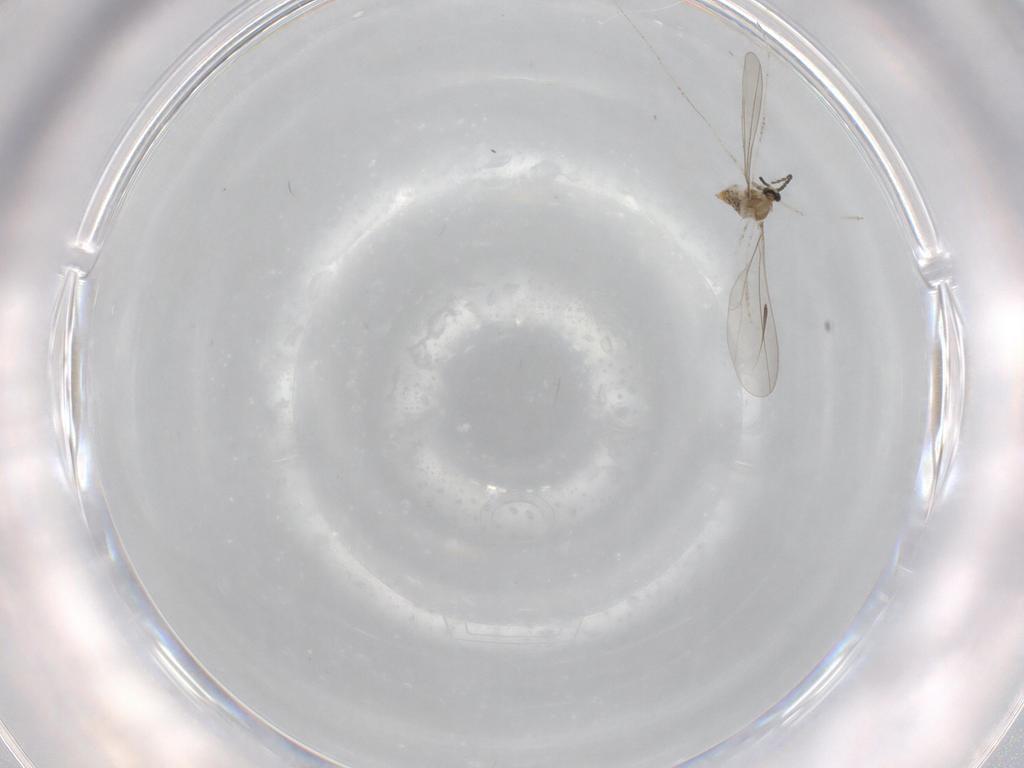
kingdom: Animalia
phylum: Arthropoda
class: Insecta
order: Diptera
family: Cecidomyiidae
